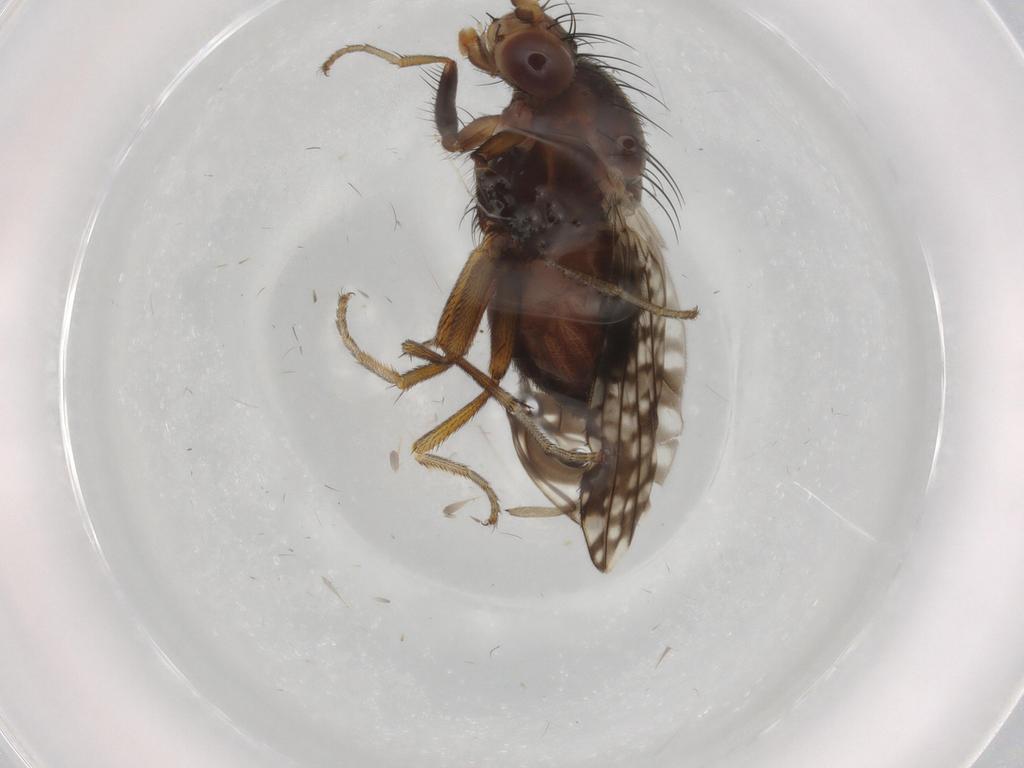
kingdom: Animalia
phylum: Arthropoda
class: Insecta
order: Diptera
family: Tephritidae
